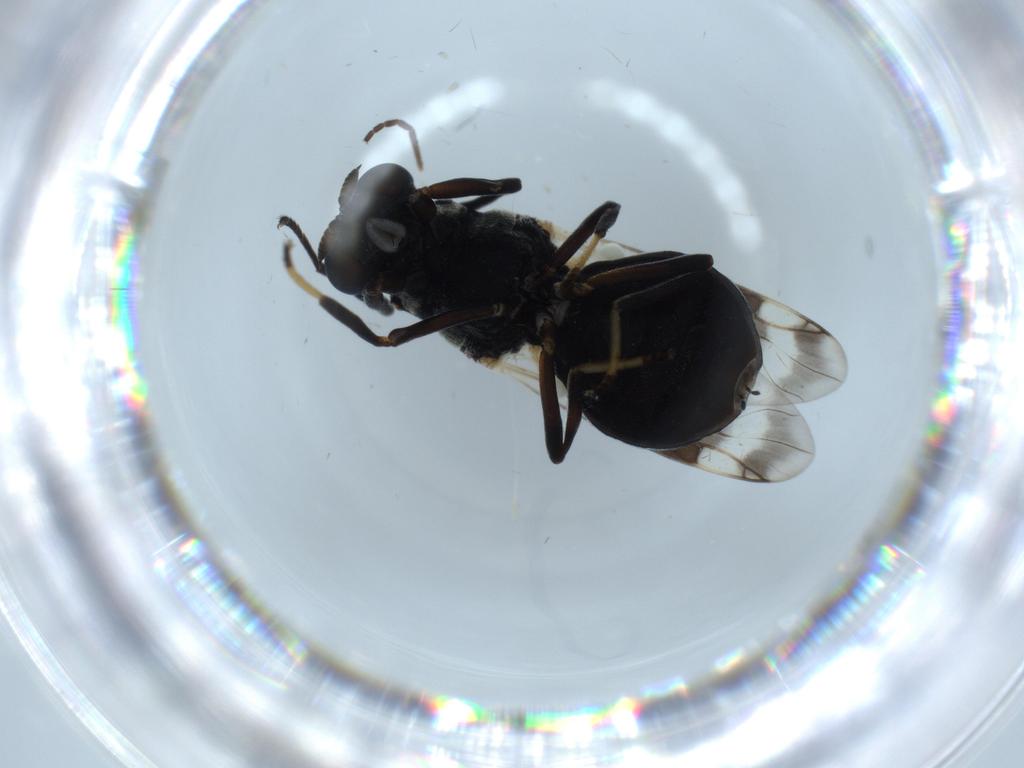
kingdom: Animalia
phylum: Arthropoda
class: Insecta
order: Diptera
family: Stratiomyidae
